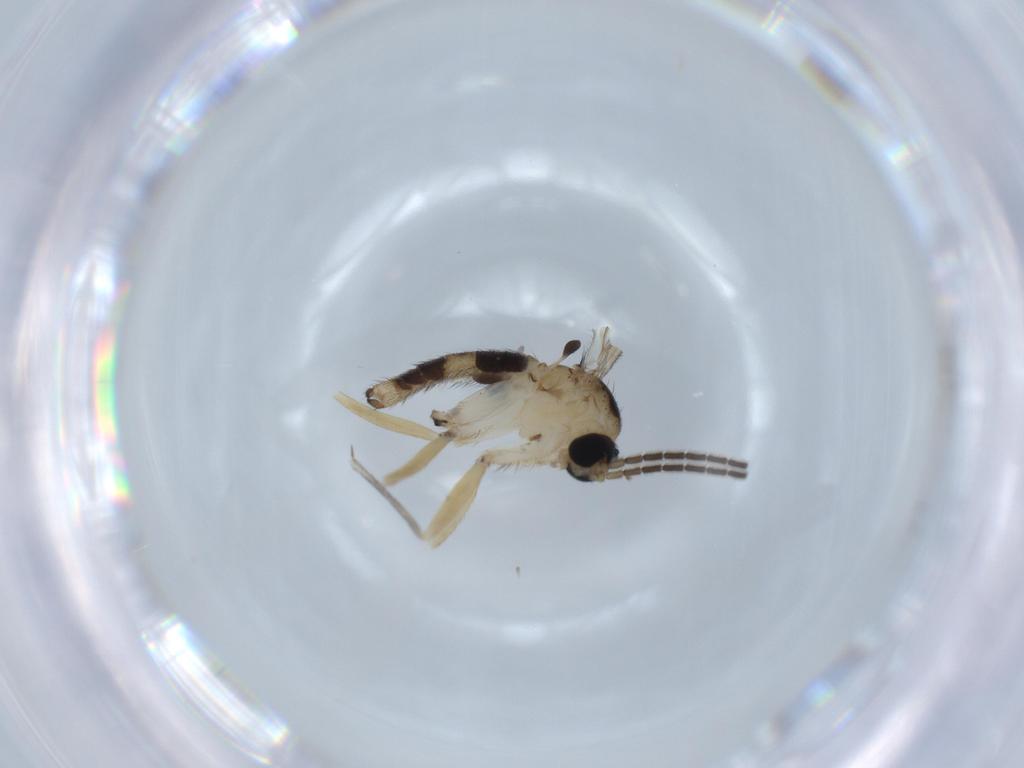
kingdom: Animalia
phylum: Arthropoda
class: Insecta
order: Diptera
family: Sciaridae
